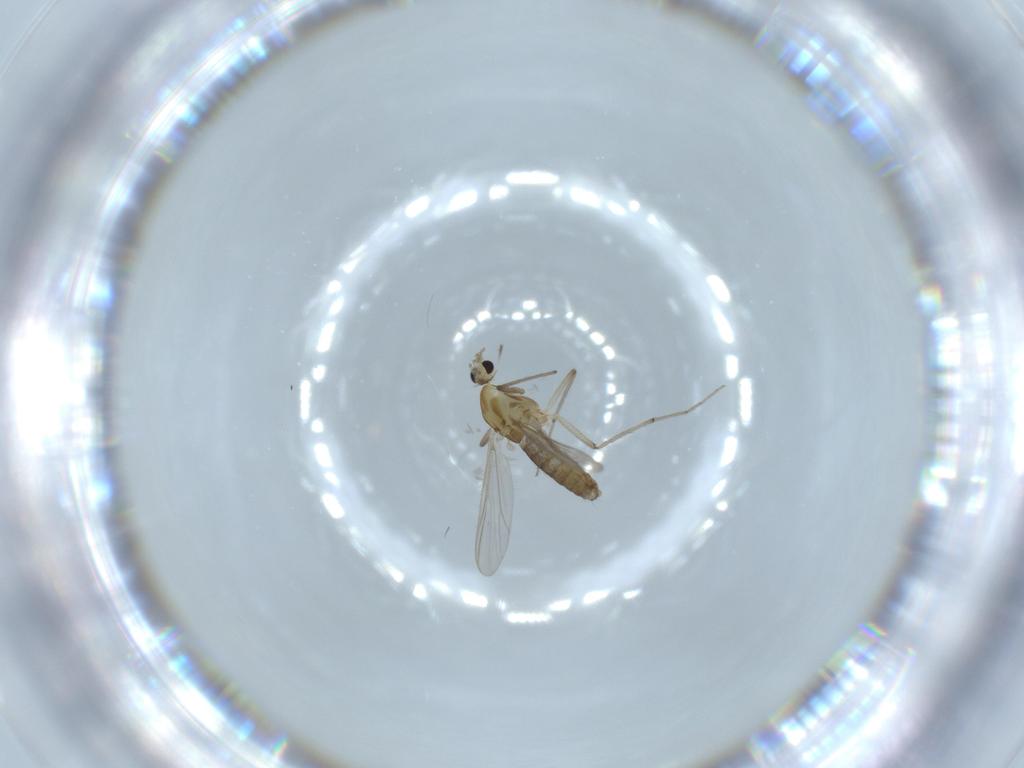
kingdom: Animalia
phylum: Arthropoda
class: Insecta
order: Diptera
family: Chironomidae
